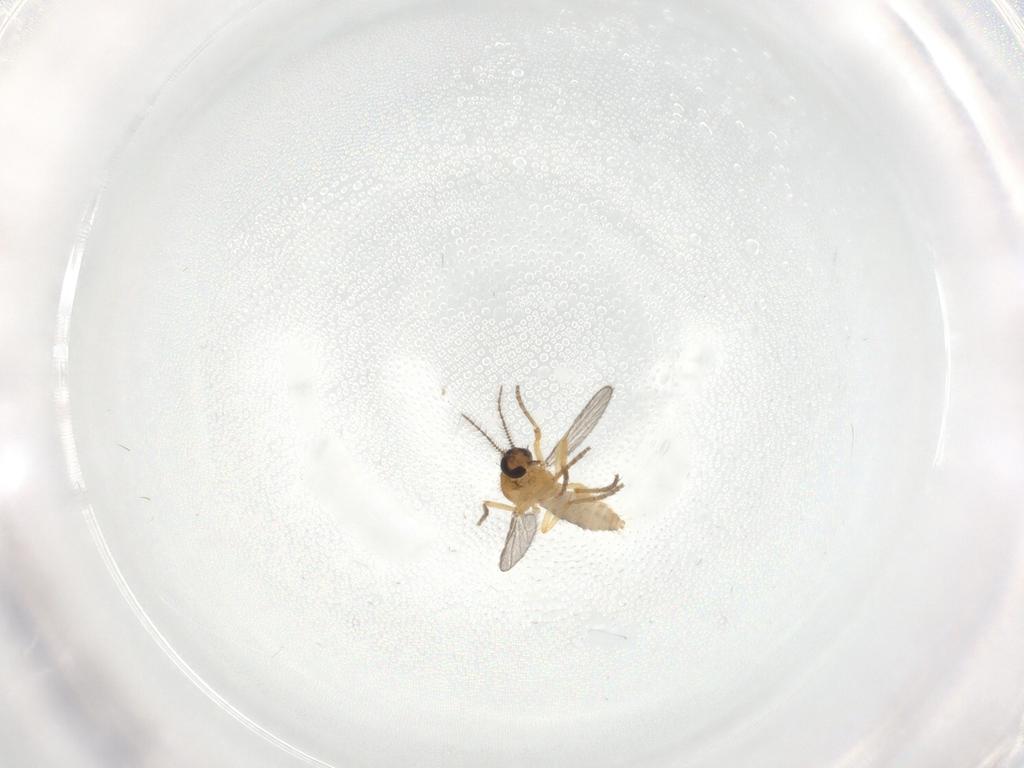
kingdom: Animalia
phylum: Arthropoda
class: Insecta
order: Diptera
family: Ceratopogonidae
